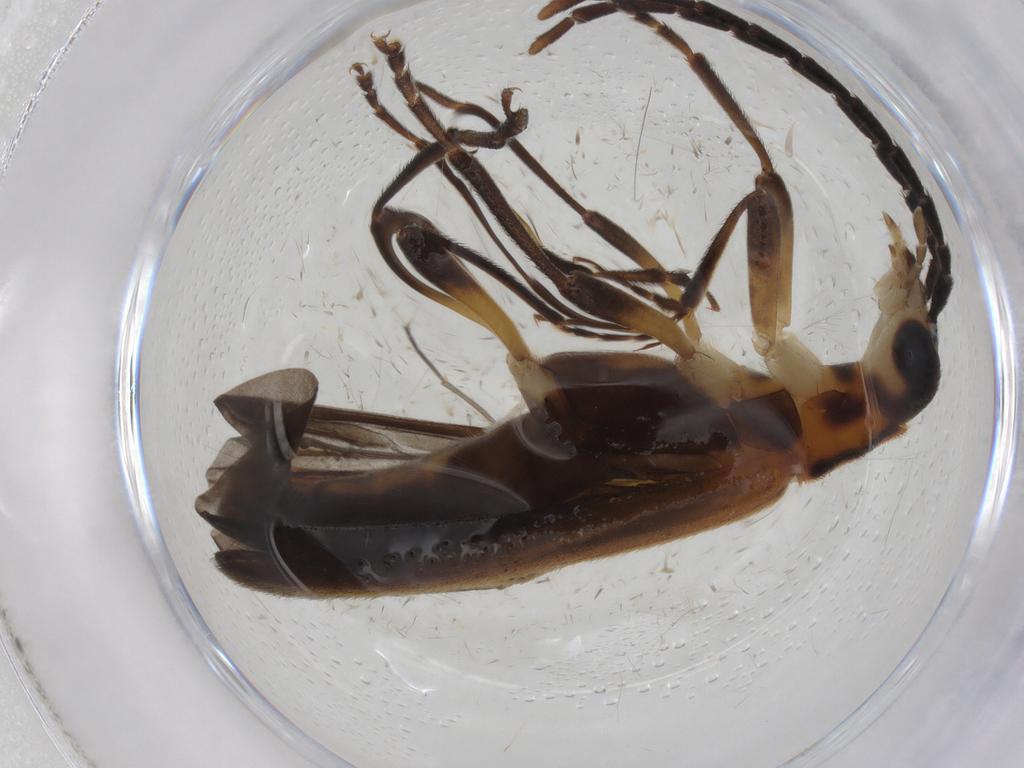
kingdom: Animalia
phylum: Arthropoda
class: Insecta
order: Coleoptera
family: Oedemeridae
